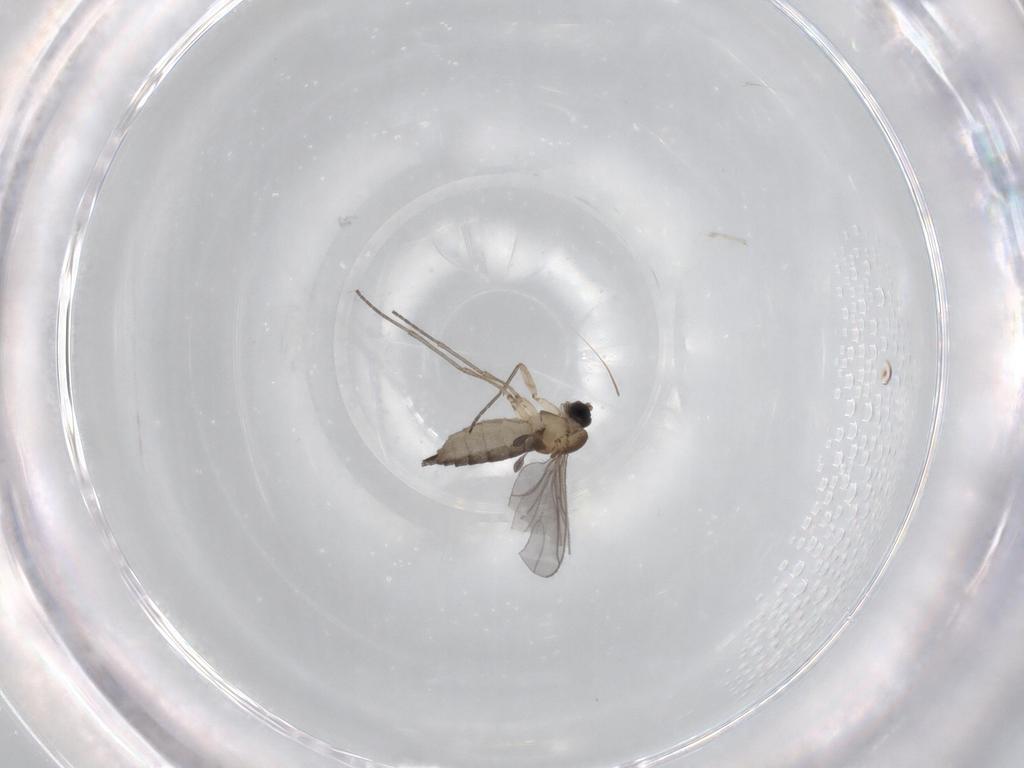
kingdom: Animalia
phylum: Arthropoda
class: Insecta
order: Diptera
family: Sciaridae
